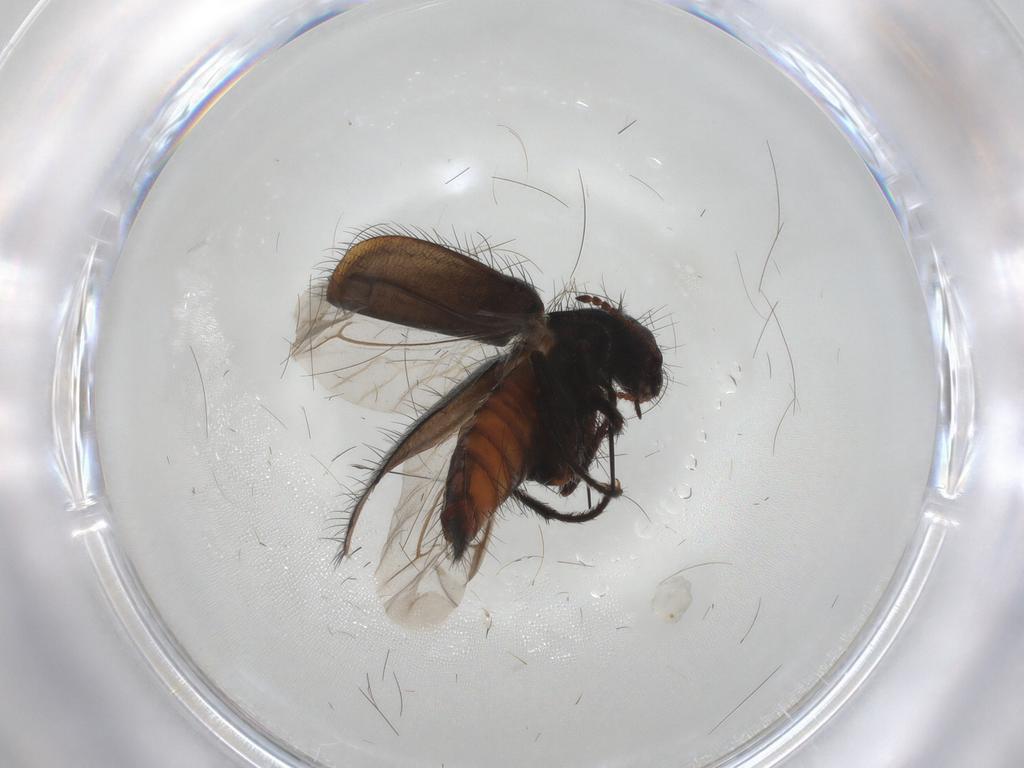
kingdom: Animalia
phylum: Arthropoda
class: Insecta
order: Coleoptera
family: Melyridae
